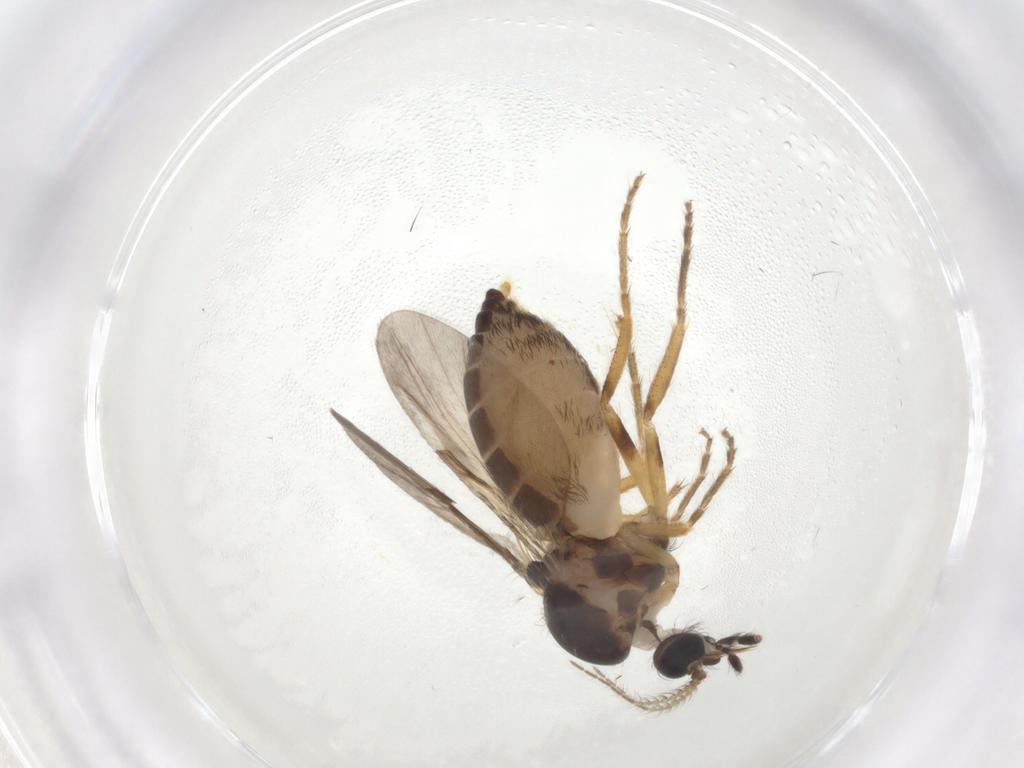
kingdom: Animalia
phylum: Arthropoda
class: Insecta
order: Diptera
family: Ceratopogonidae
